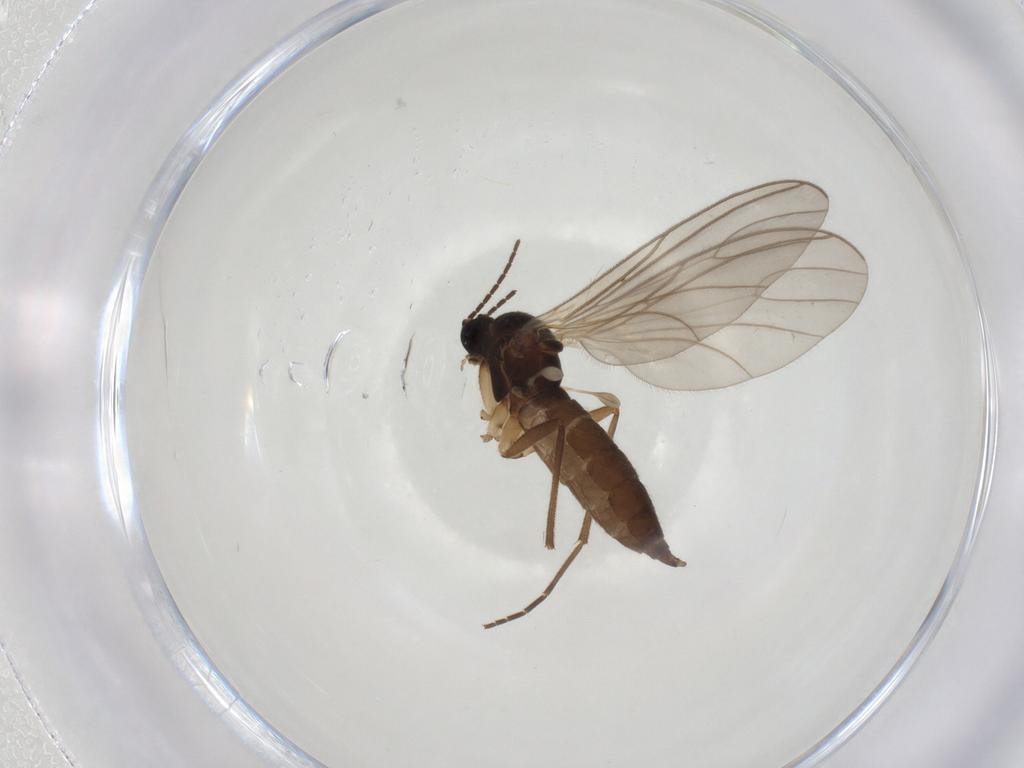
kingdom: Animalia
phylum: Arthropoda
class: Insecta
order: Diptera
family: Sciaridae
